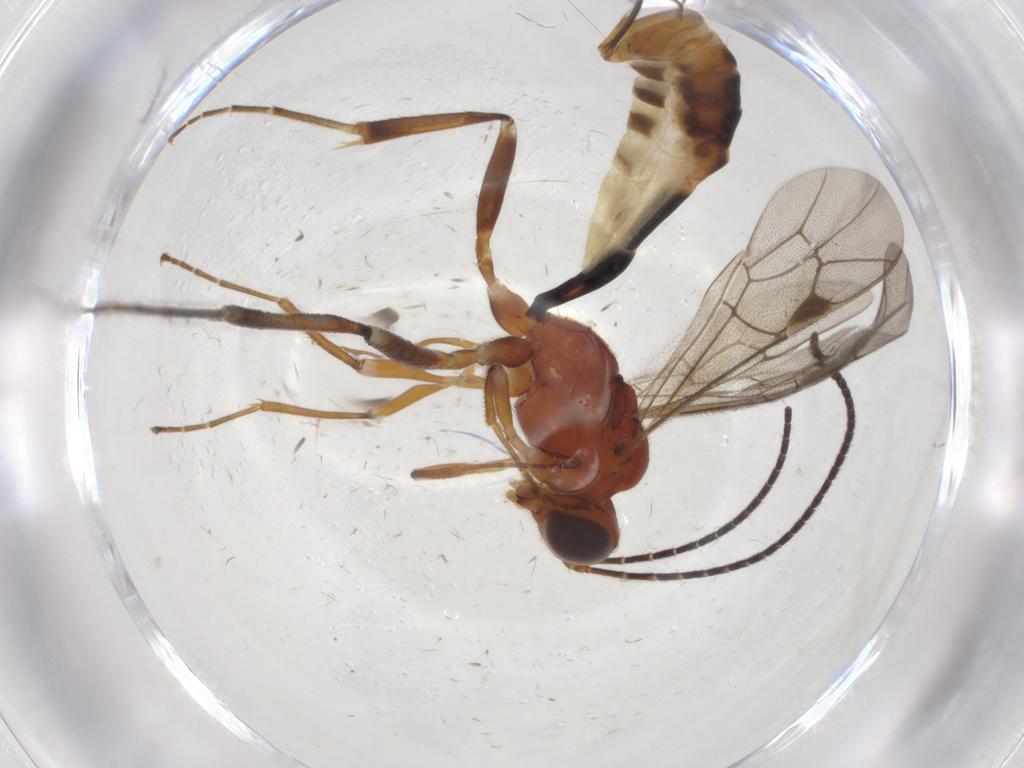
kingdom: Animalia
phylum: Arthropoda
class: Insecta
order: Hymenoptera
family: Scelionidae
